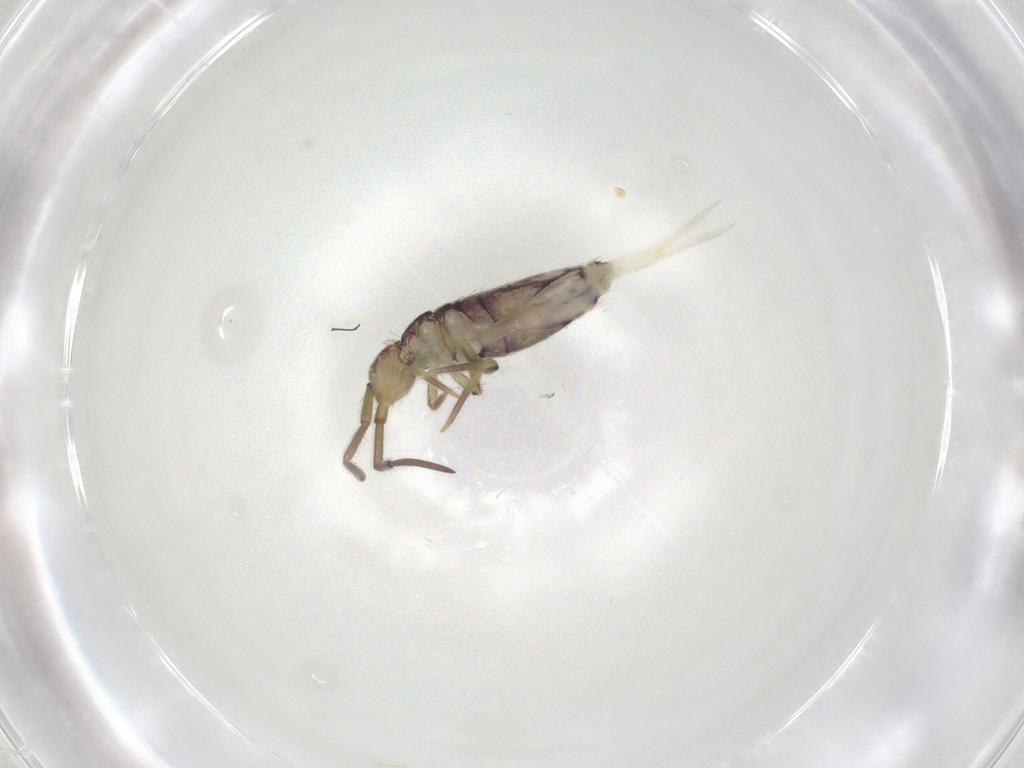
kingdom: Animalia
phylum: Arthropoda
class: Collembola
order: Entomobryomorpha
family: Entomobryidae
